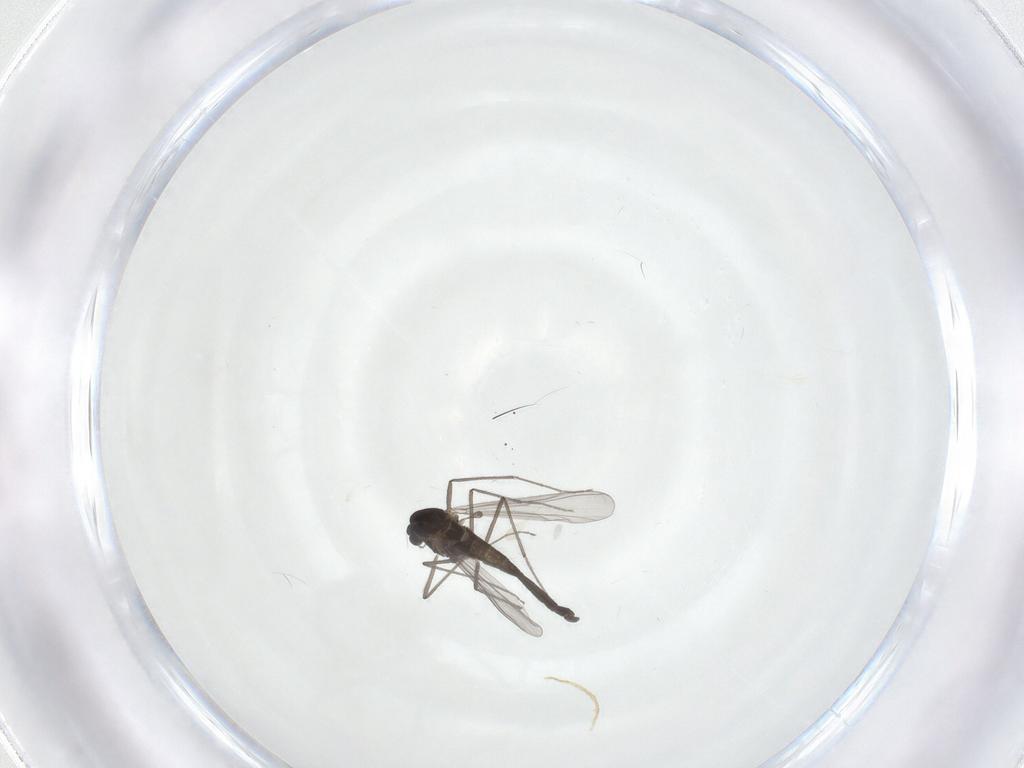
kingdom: Animalia
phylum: Arthropoda
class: Insecta
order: Diptera
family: Chironomidae
